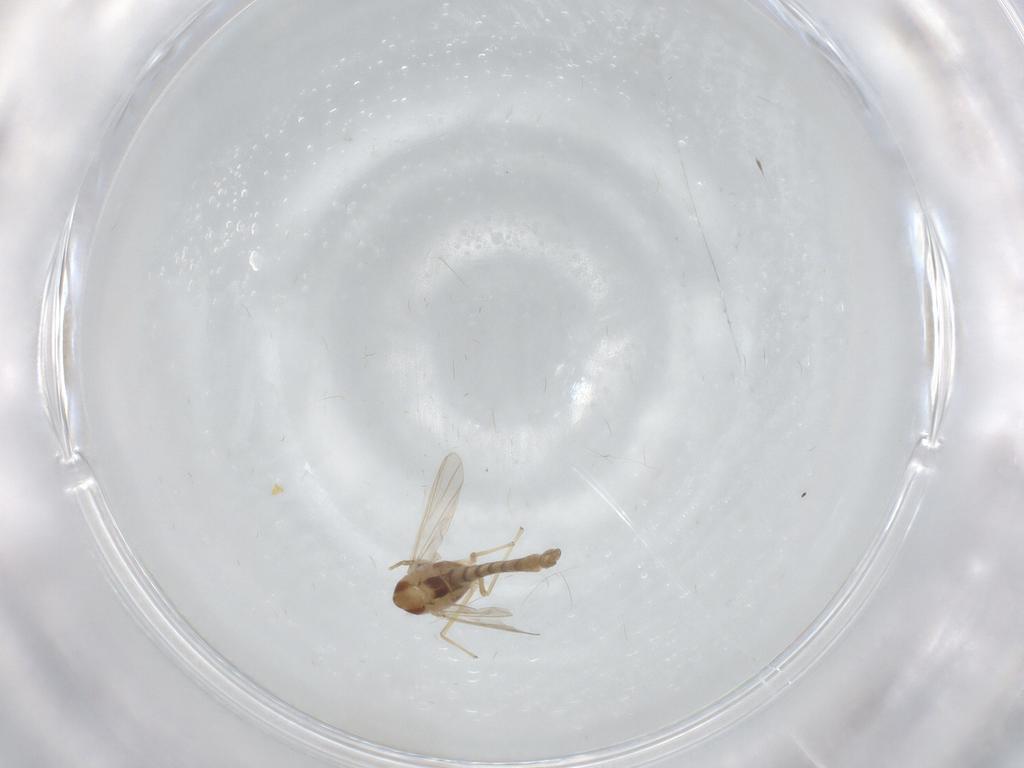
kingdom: Animalia
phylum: Arthropoda
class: Insecta
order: Diptera
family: Chironomidae
